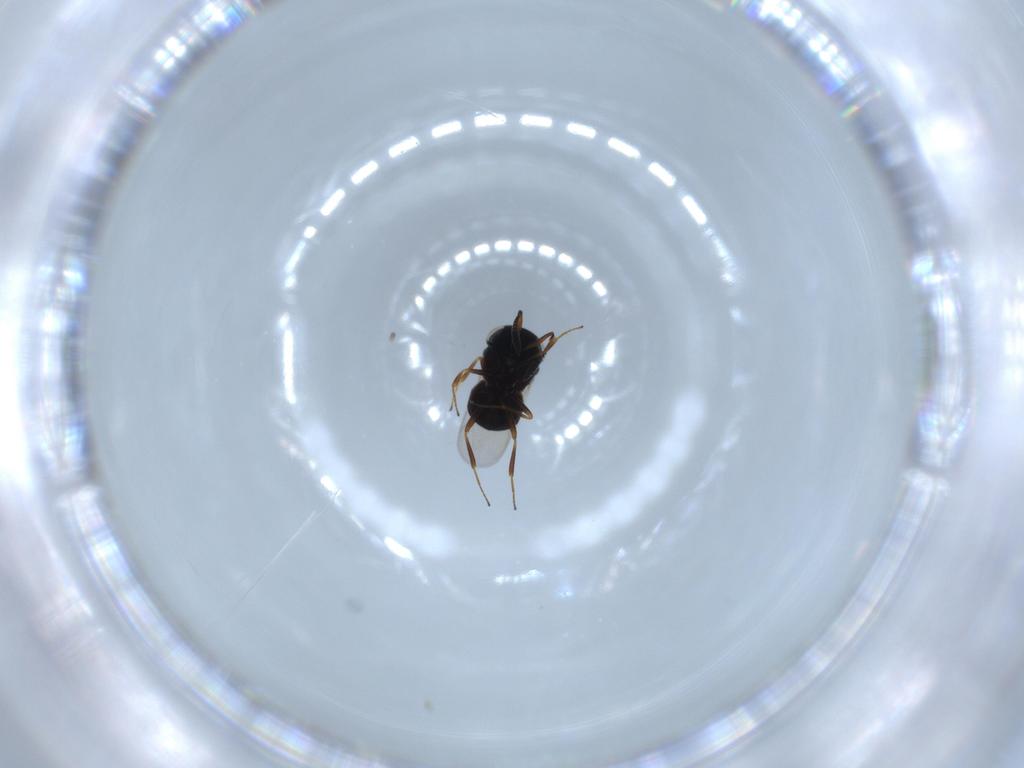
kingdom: Animalia
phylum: Arthropoda
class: Insecta
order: Hymenoptera
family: Scelionidae
